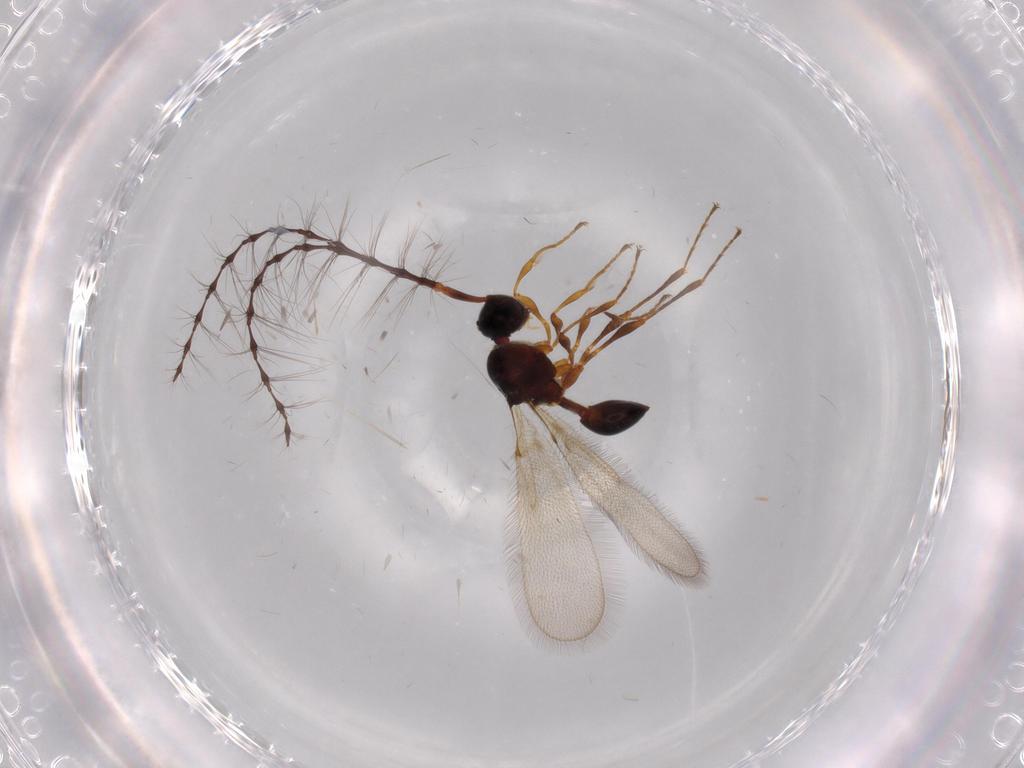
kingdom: Animalia
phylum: Arthropoda
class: Insecta
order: Hymenoptera
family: Diapriidae
